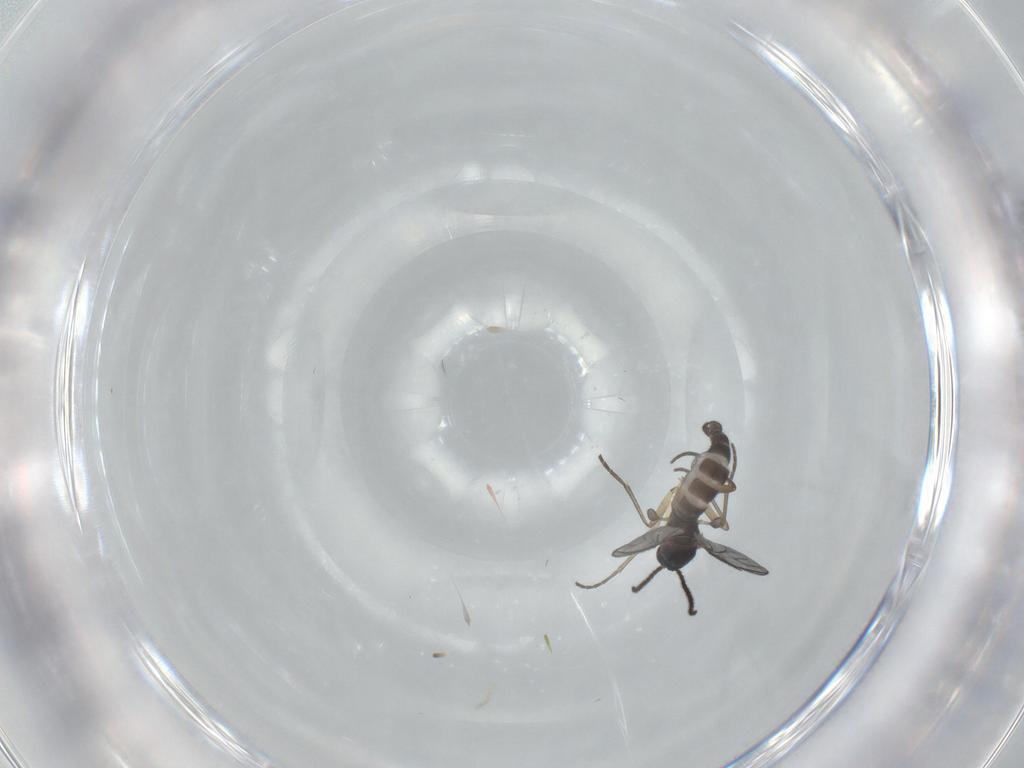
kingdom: Animalia
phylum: Arthropoda
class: Insecta
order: Diptera
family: Sciaridae
